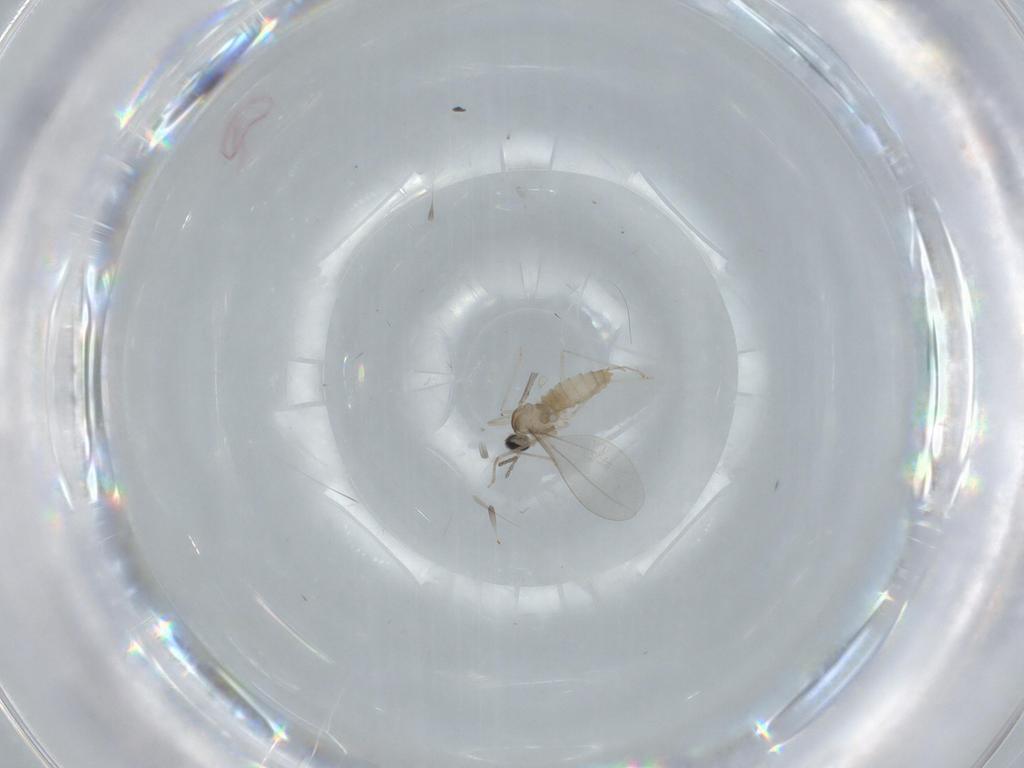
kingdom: Animalia
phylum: Arthropoda
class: Insecta
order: Diptera
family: Cecidomyiidae
